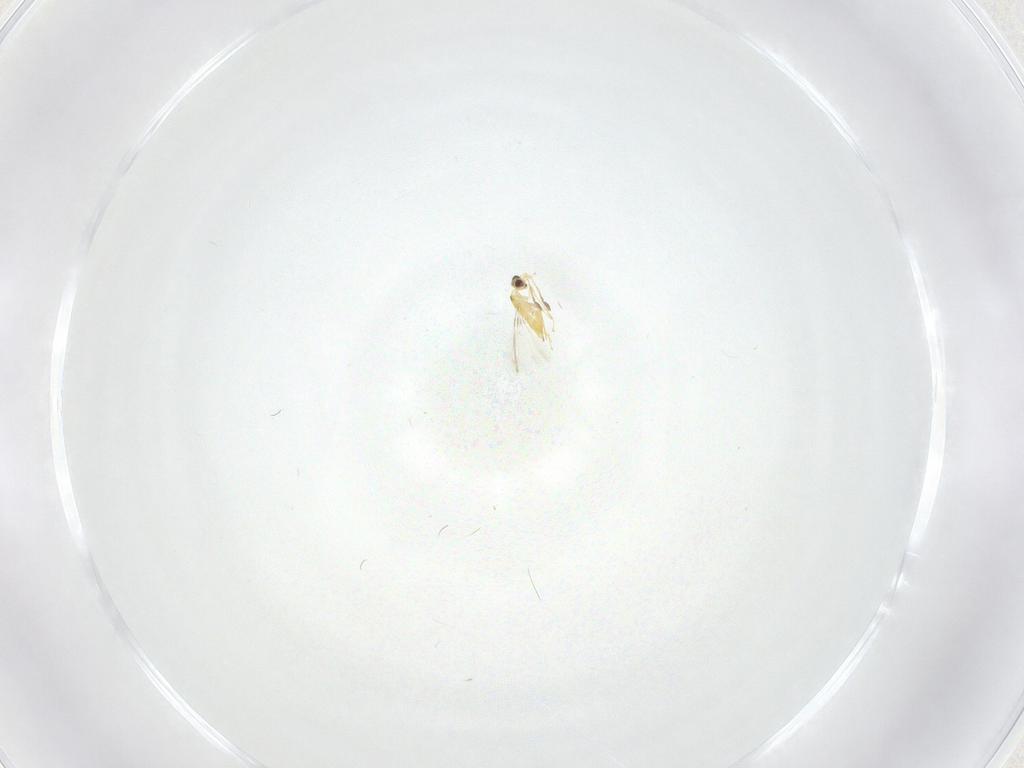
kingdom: Animalia
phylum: Arthropoda
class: Insecta
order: Hymenoptera
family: Mymaridae
